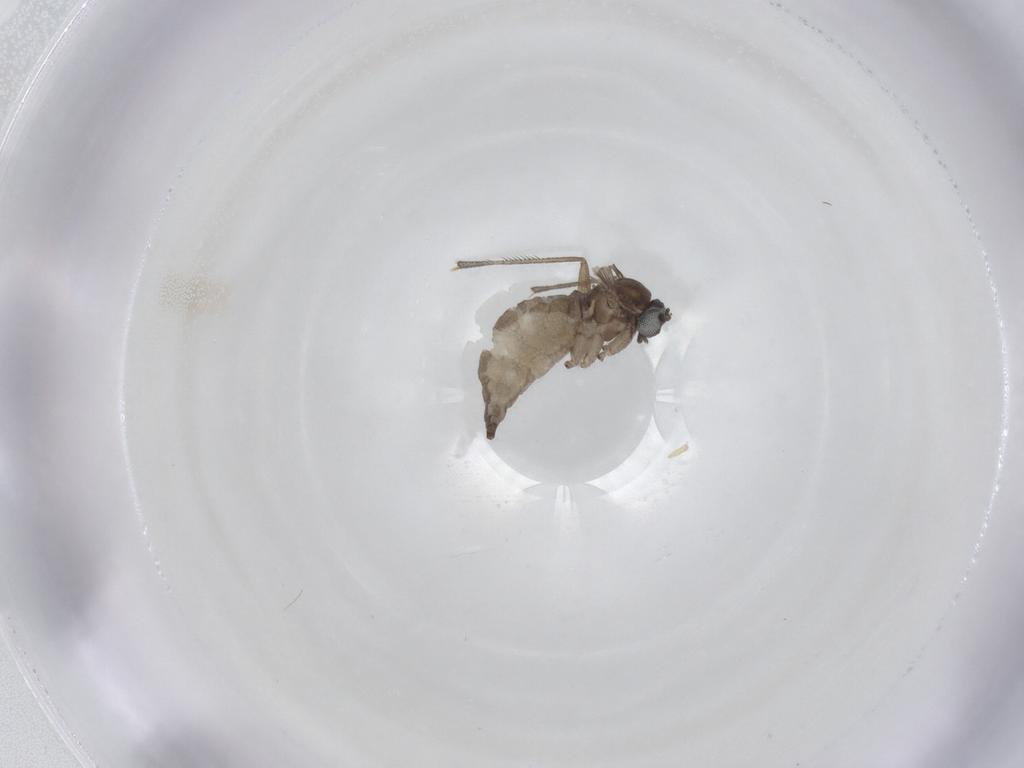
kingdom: Animalia
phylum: Arthropoda
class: Insecta
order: Diptera
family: Sciaridae
